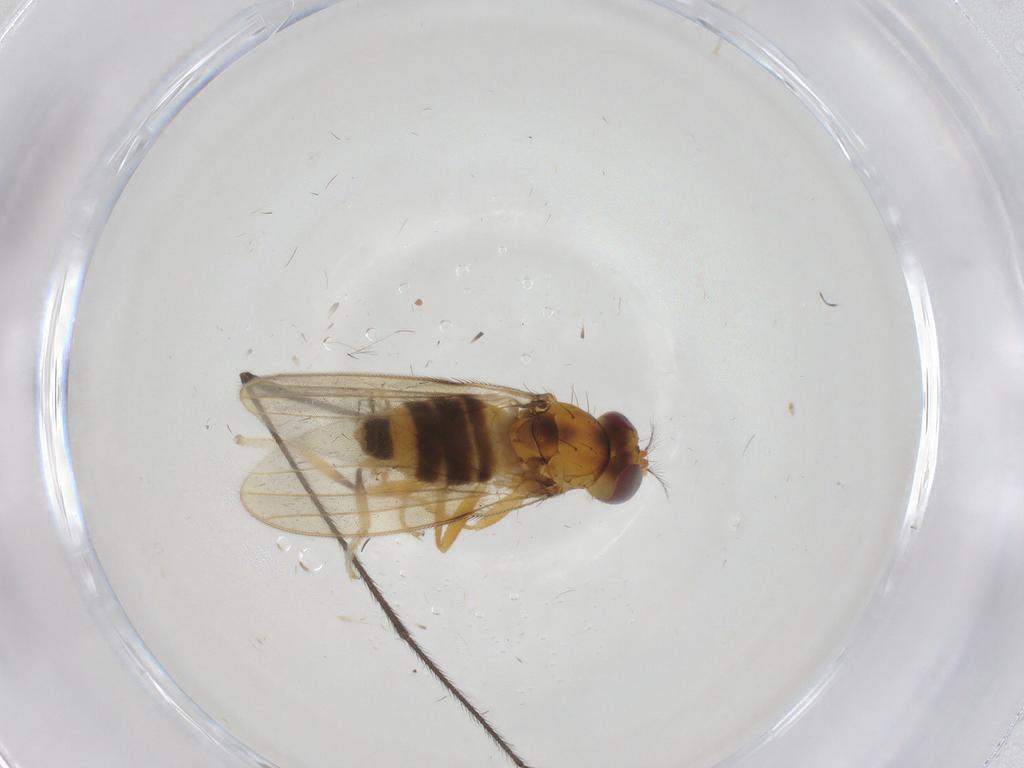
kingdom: Animalia
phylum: Arthropoda
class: Insecta
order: Diptera
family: Periscelididae
